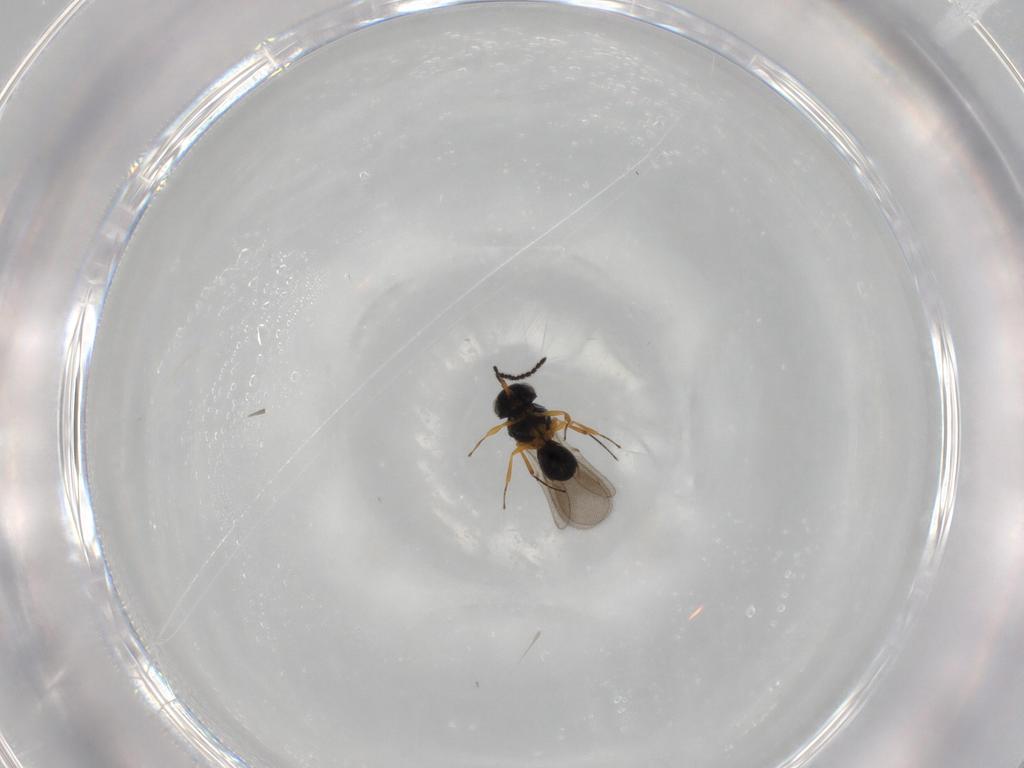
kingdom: Animalia
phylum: Arthropoda
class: Insecta
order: Hymenoptera
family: Scelionidae
